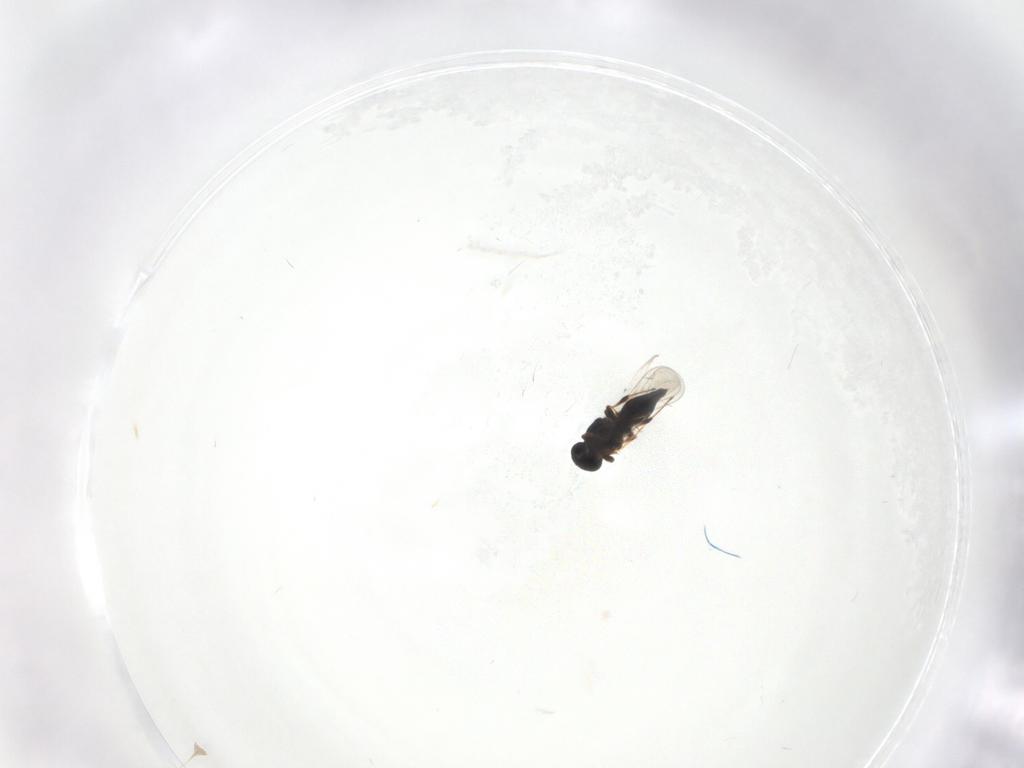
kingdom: Animalia
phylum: Arthropoda
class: Insecta
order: Hymenoptera
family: Platygastridae
